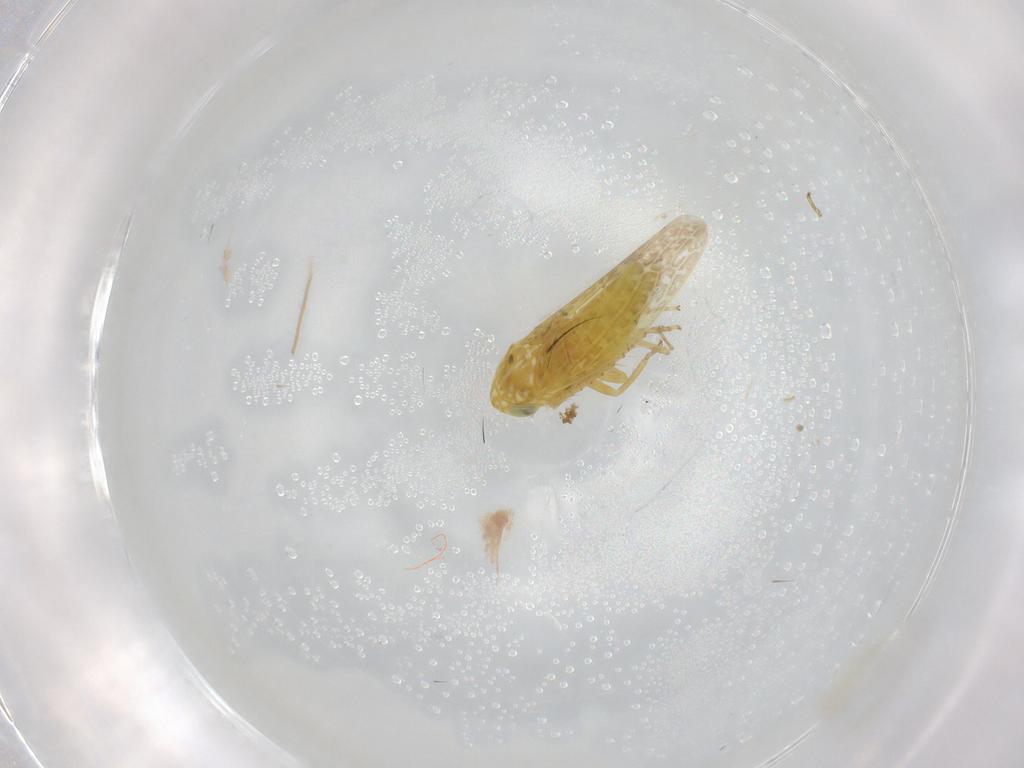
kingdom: Animalia
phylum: Arthropoda
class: Insecta
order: Hemiptera
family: Cicadellidae
